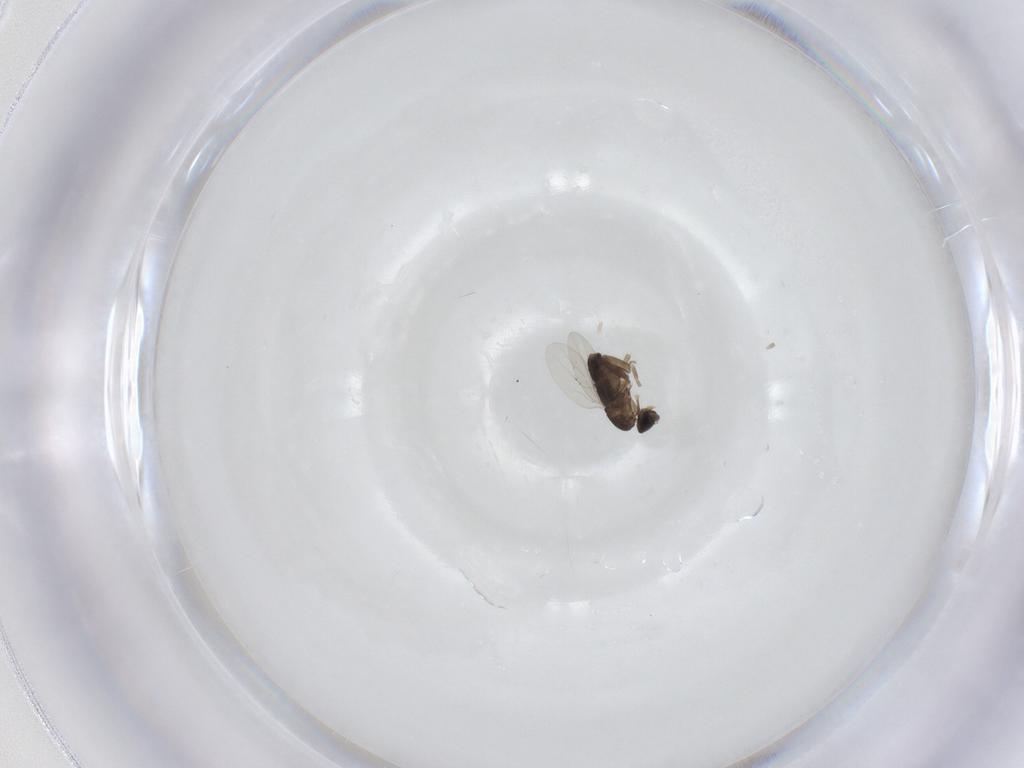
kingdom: Animalia
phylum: Arthropoda
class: Insecta
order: Diptera
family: Phoridae
